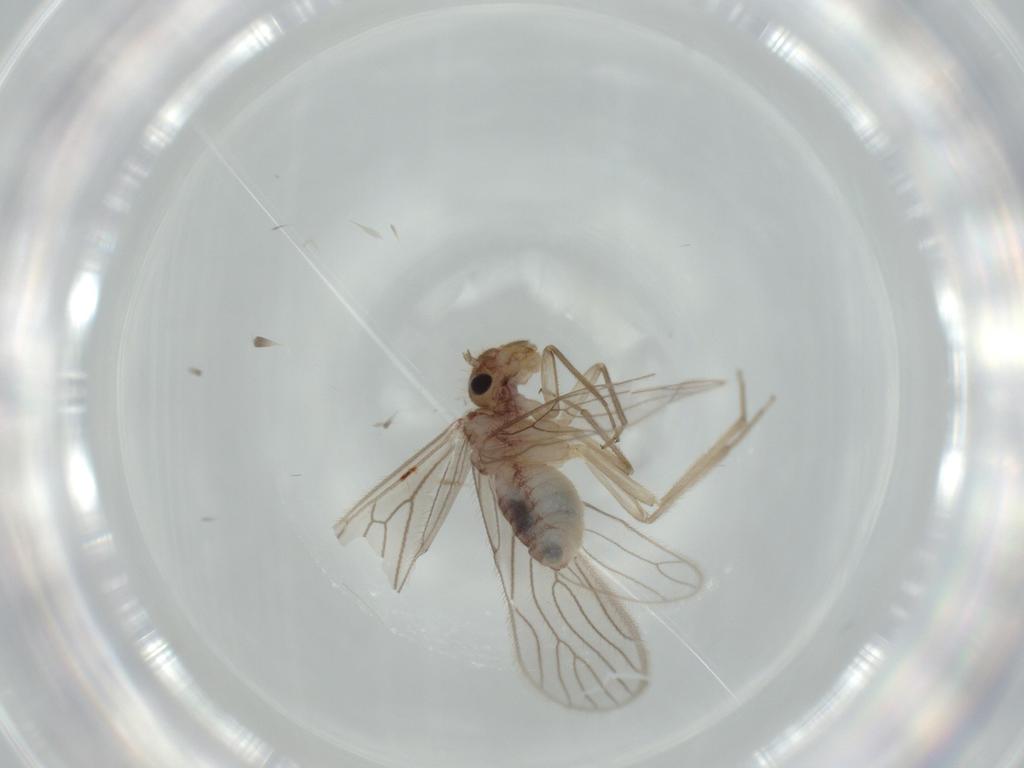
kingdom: Animalia
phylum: Arthropoda
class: Insecta
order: Psocodea
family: Cladiopsocidae
